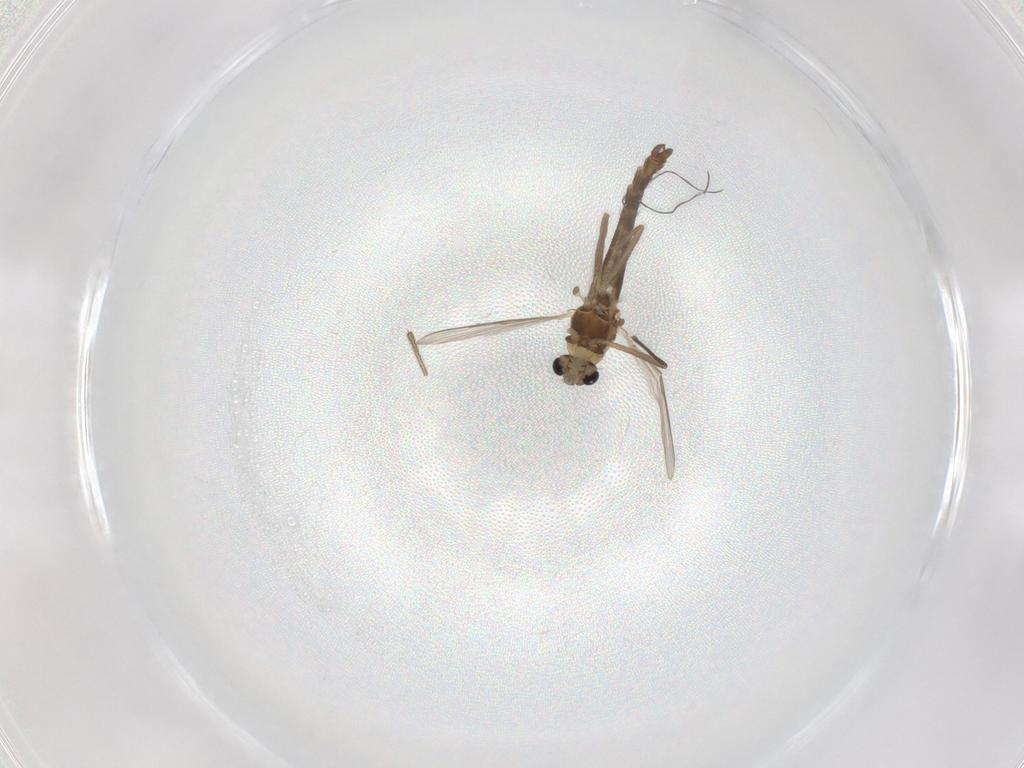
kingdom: Animalia
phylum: Arthropoda
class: Insecta
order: Diptera
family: Chironomidae
